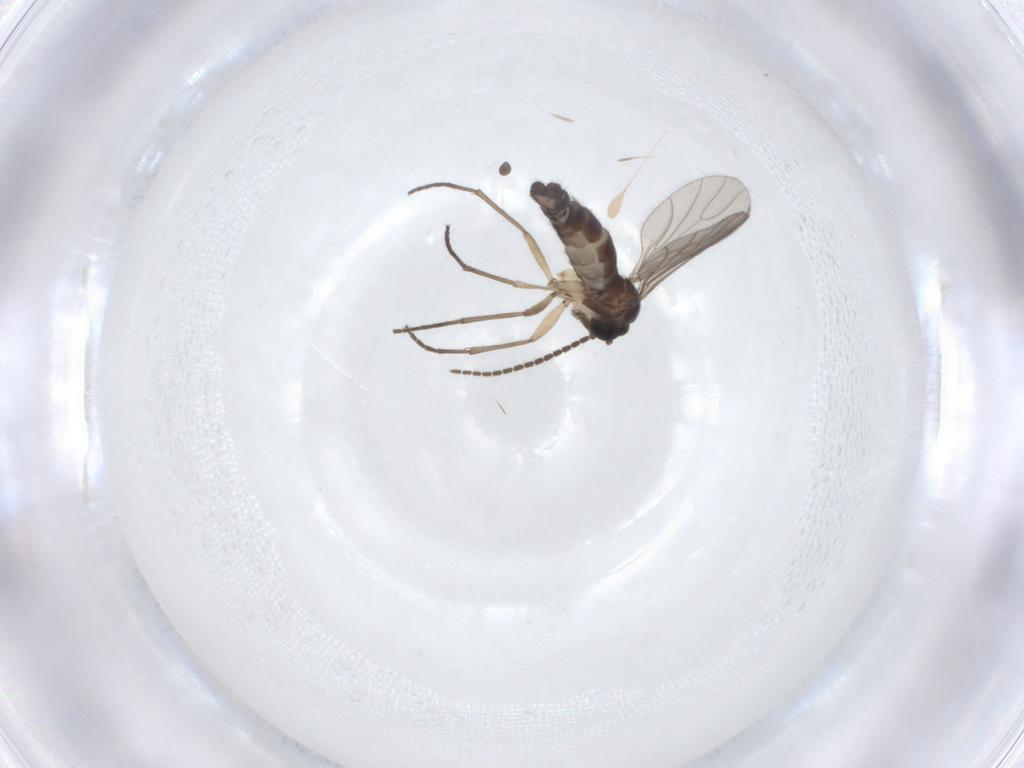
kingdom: Animalia
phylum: Arthropoda
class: Insecta
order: Diptera
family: Sciaridae
